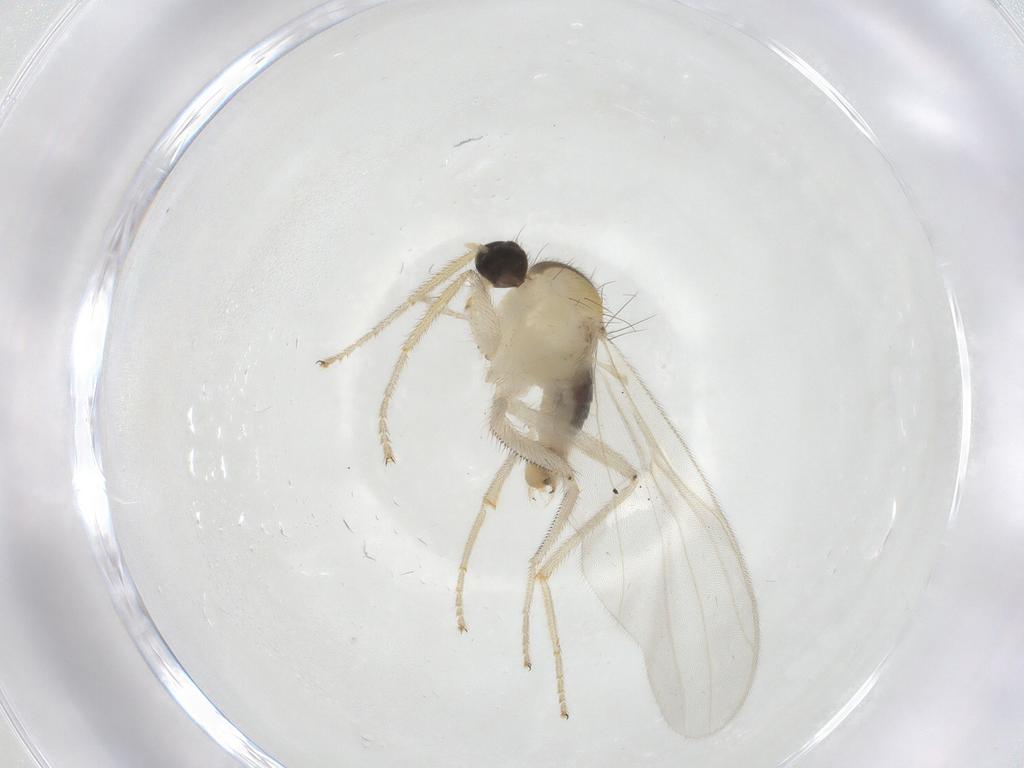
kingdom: Animalia
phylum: Arthropoda
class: Insecta
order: Diptera
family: Hybotidae
